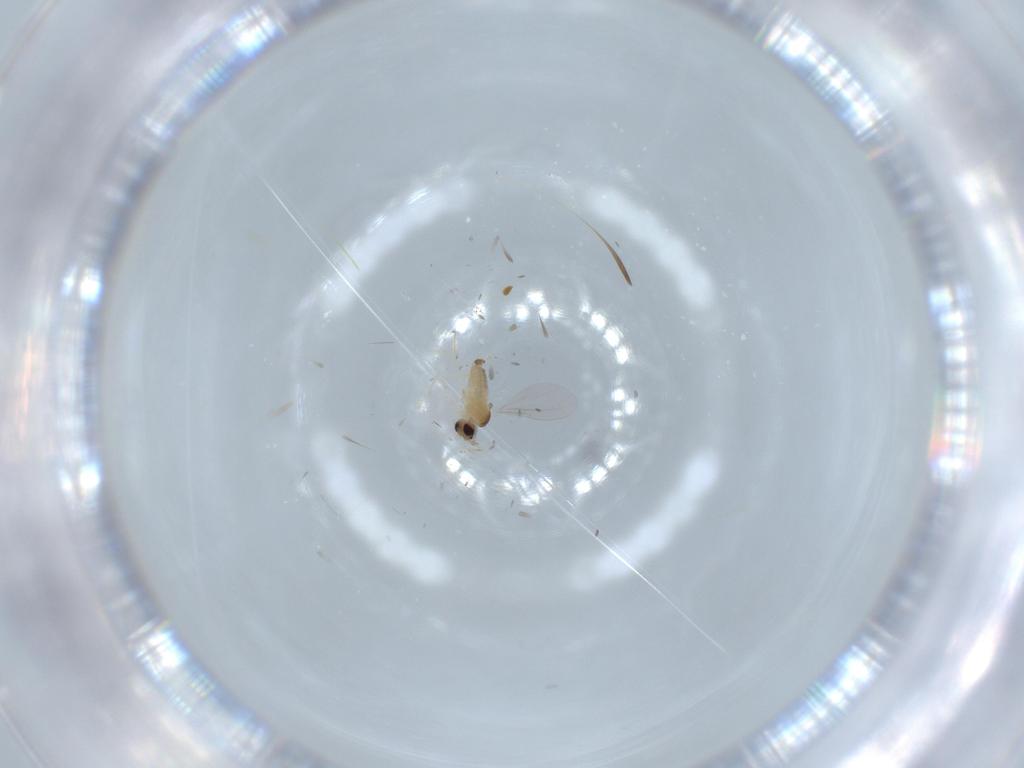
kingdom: Animalia
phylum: Arthropoda
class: Insecta
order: Diptera
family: Cecidomyiidae
